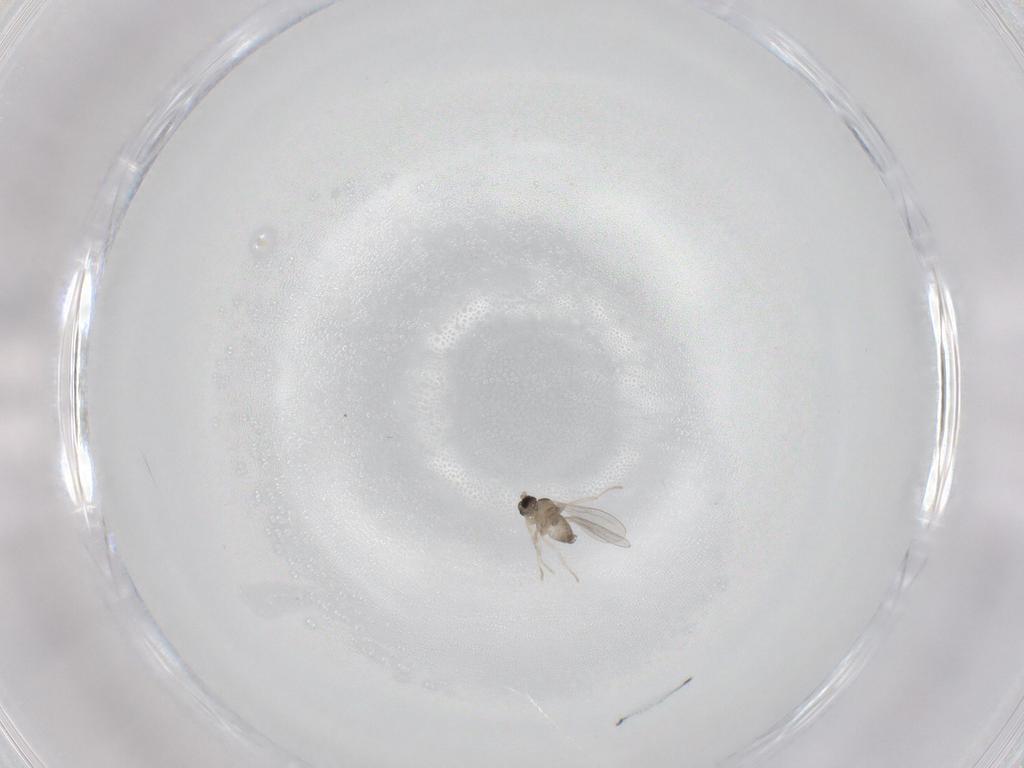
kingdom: Animalia
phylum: Arthropoda
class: Insecta
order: Diptera
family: Cecidomyiidae
